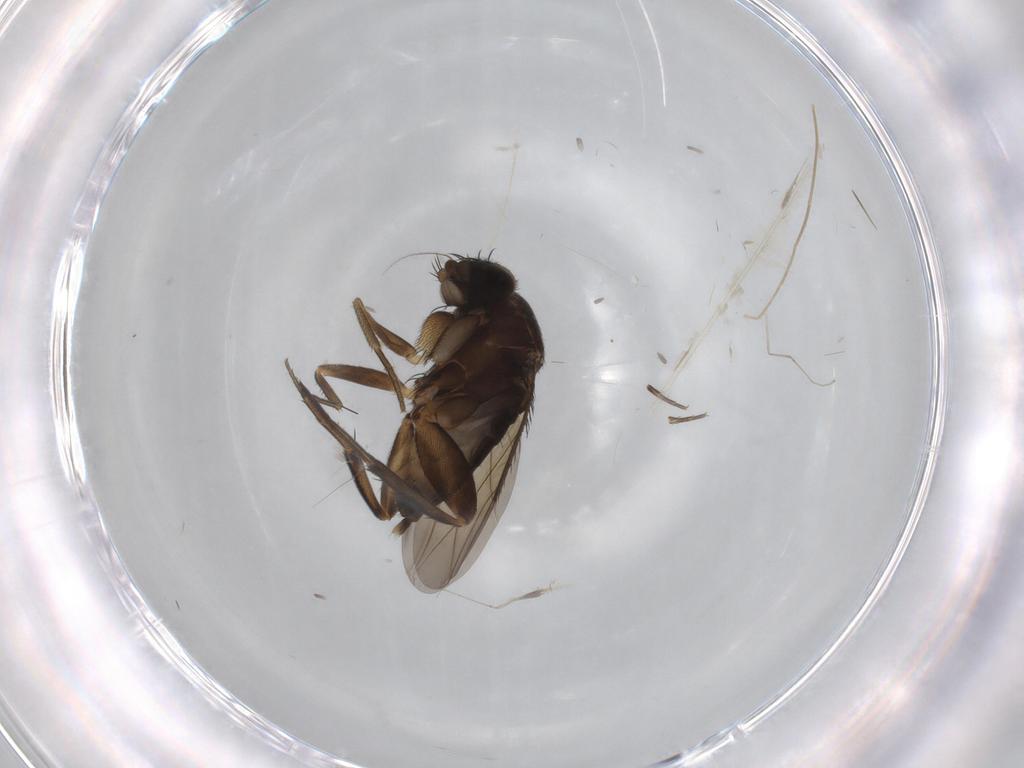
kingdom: Animalia
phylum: Arthropoda
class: Insecta
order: Diptera
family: Phoridae
